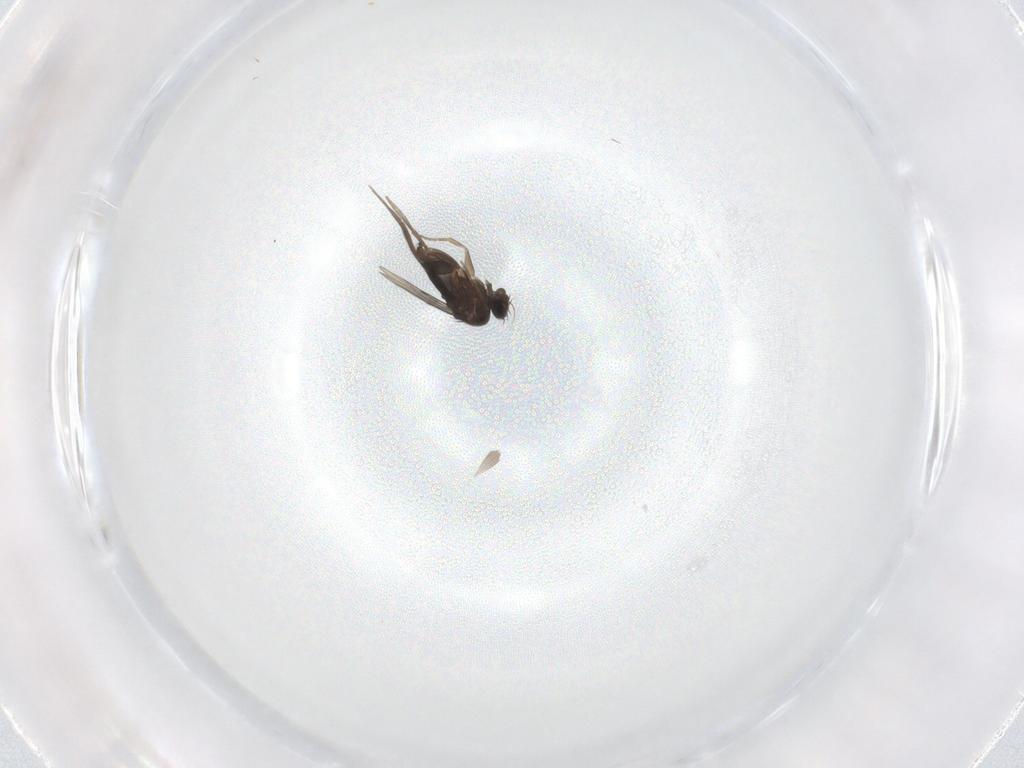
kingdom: Animalia
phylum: Arthropoda
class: Insecta
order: Diptera
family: Phoridae
